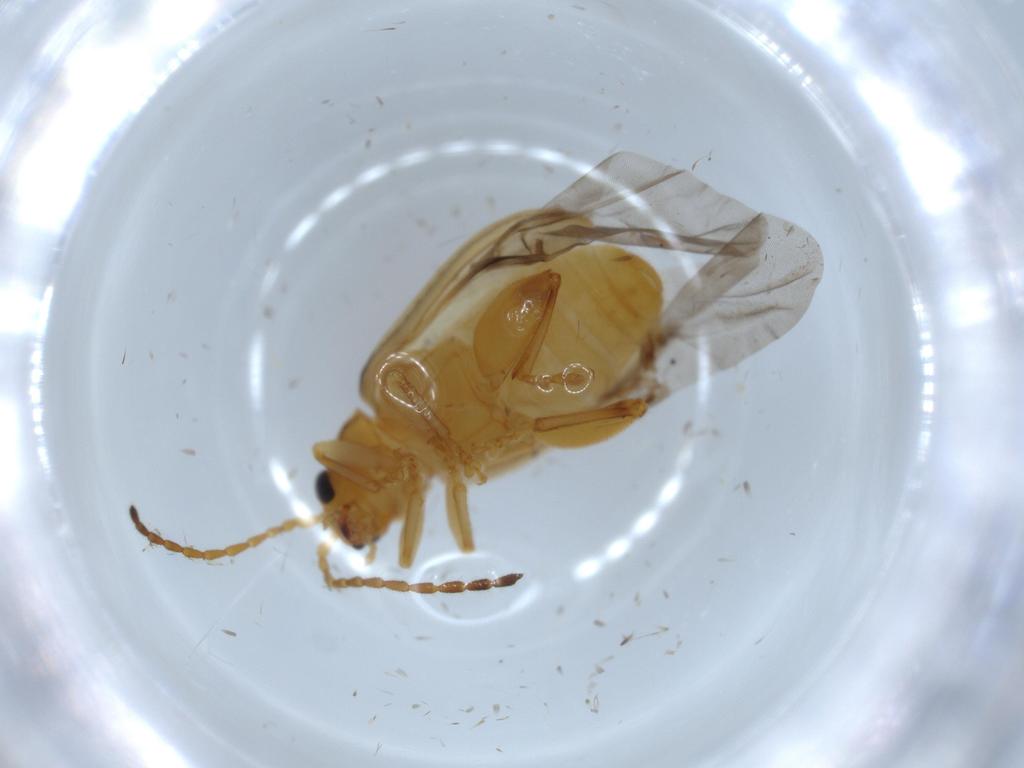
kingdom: Animalia
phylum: Arthropoda
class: Insecta
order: Coleoptera
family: Chrysomelidae
